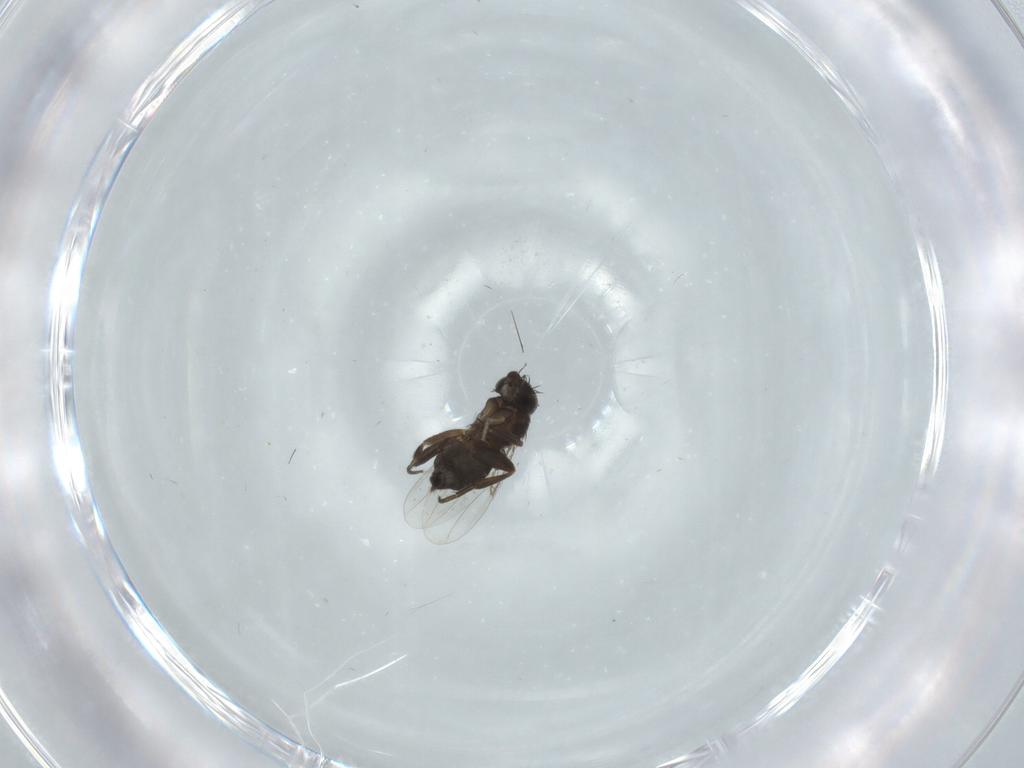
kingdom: Animalia
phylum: Arthropoda
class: Insecta
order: Diptera
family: Phoridae
